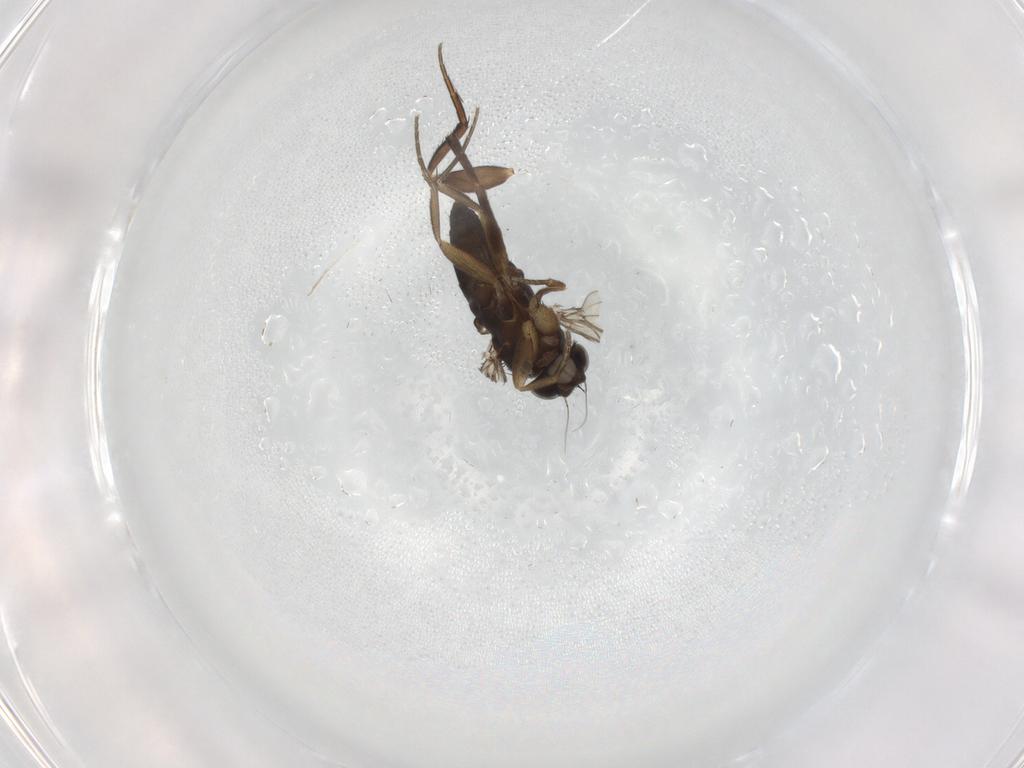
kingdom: Animalia
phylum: Arthropoda
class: Insecta
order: Diptera
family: Phoridae
